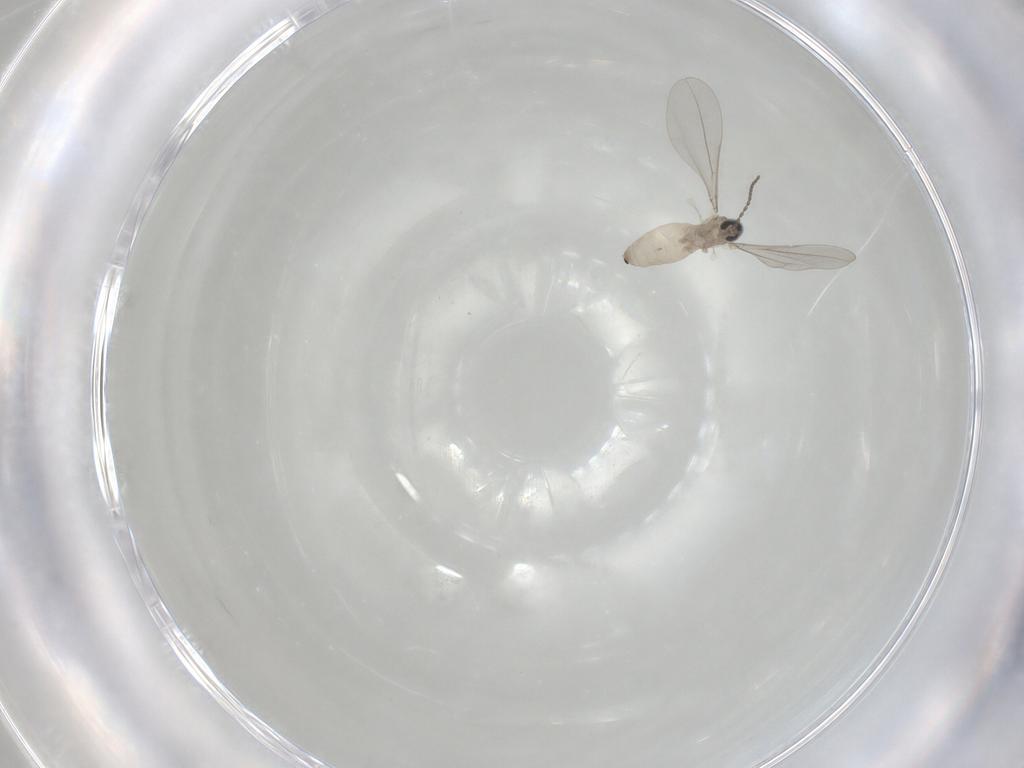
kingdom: Animalia
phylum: Arthropoda
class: Insecta
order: Diptera
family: Cecidomyiidae
